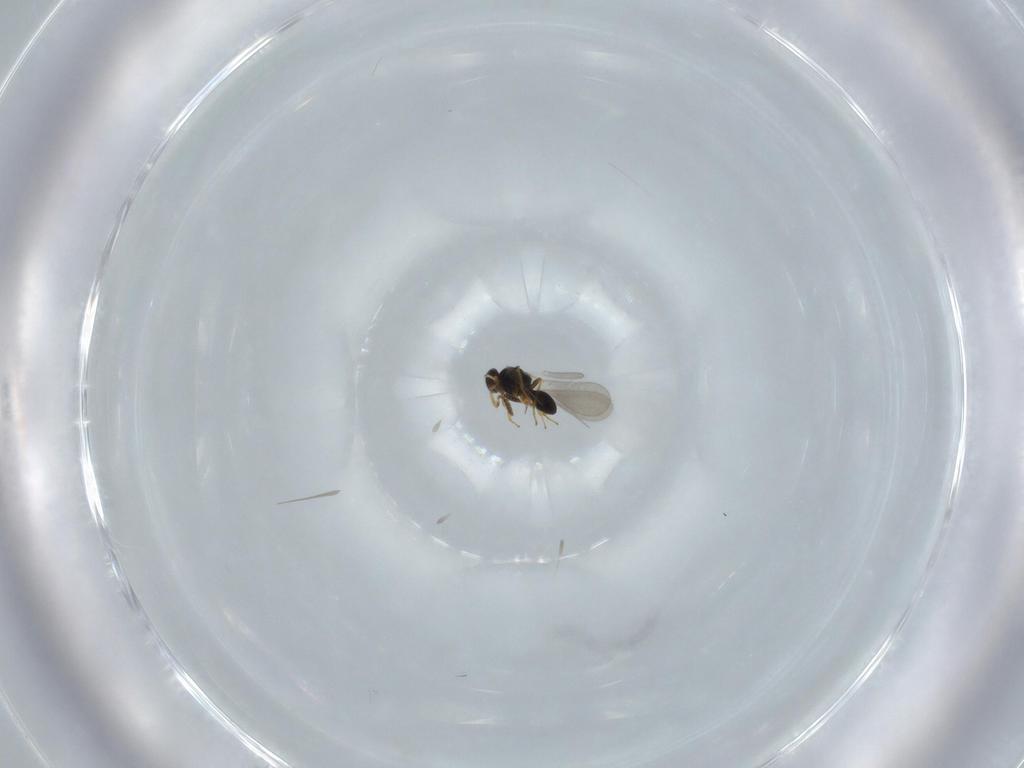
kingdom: Animalia
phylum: Arthropoda
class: Insecta
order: Hymenoptera
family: Platygastridae
